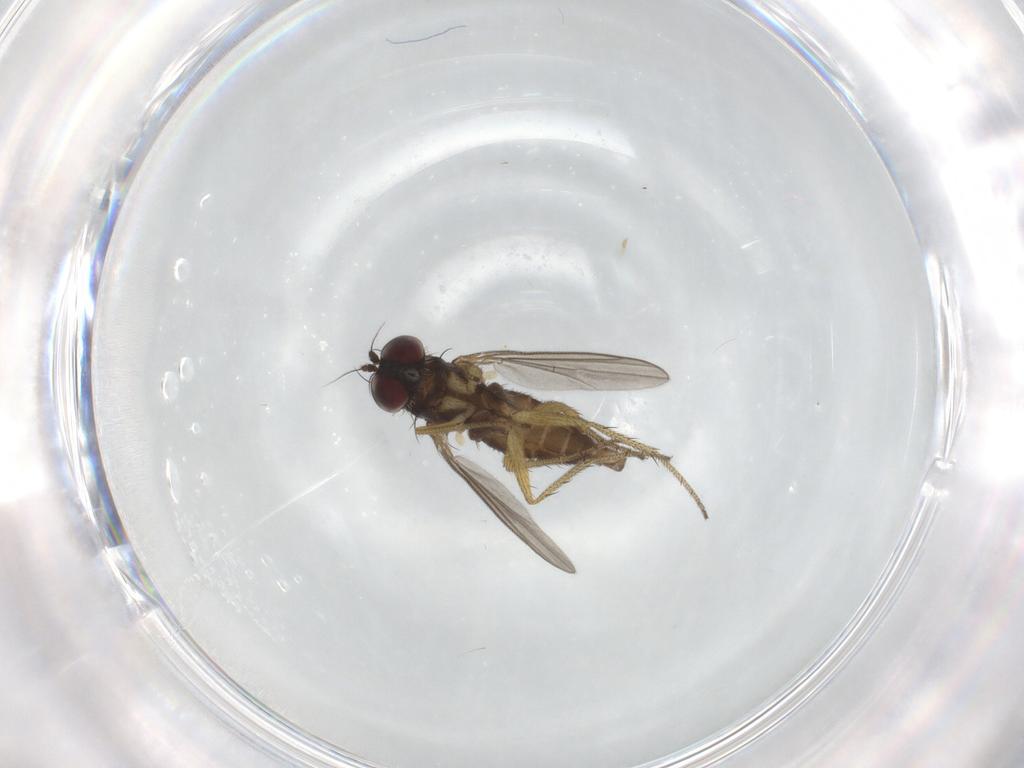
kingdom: Animalia
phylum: Arthropoda
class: Insecta
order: Diptera
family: Dolichopodidae
